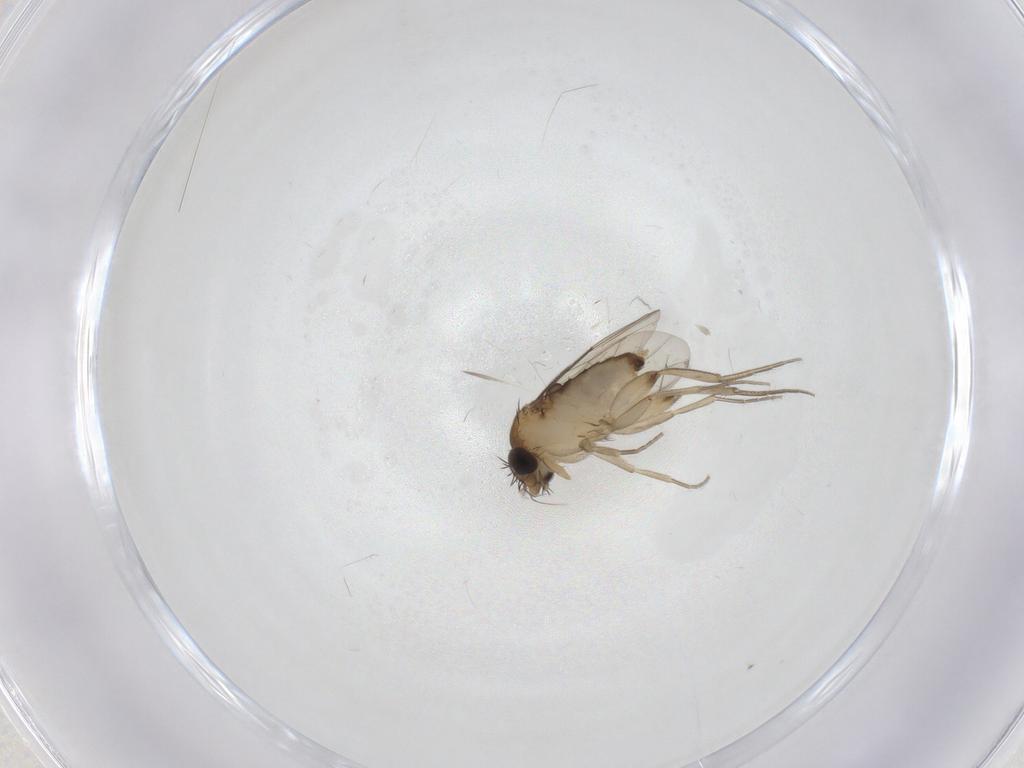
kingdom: Animalia
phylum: Arthropoda
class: Insecta
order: Diptera
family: Phoridae
